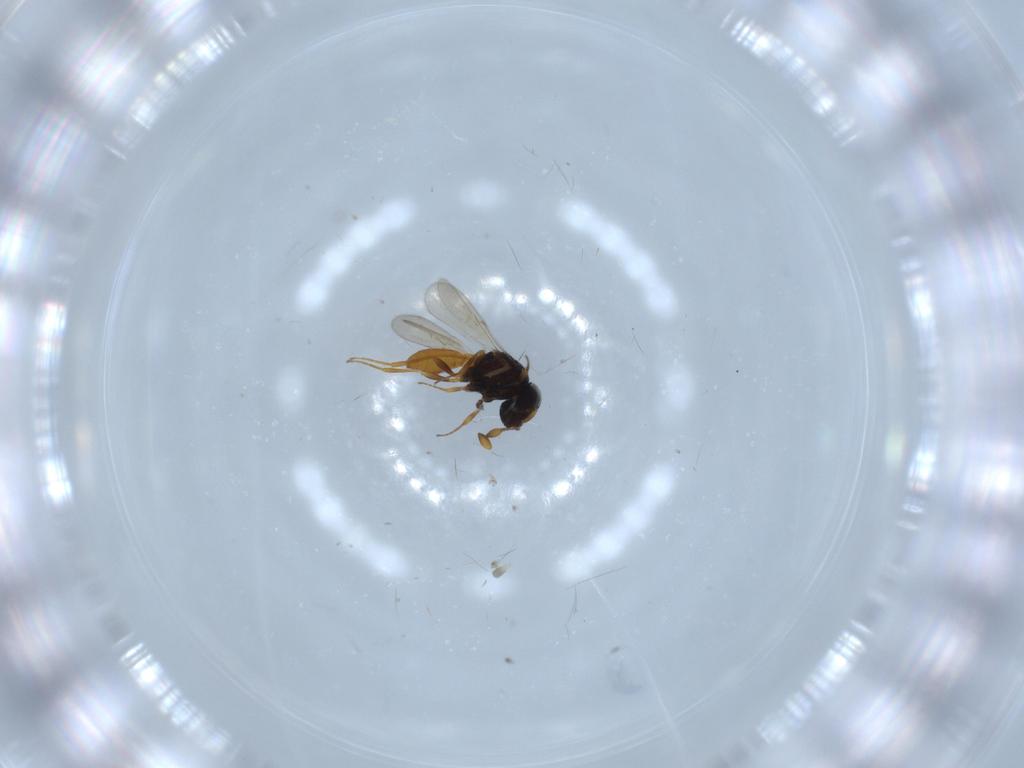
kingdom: Animalia
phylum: Arthropoda
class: Insecta
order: Hymenoptera
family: Scelionidae
